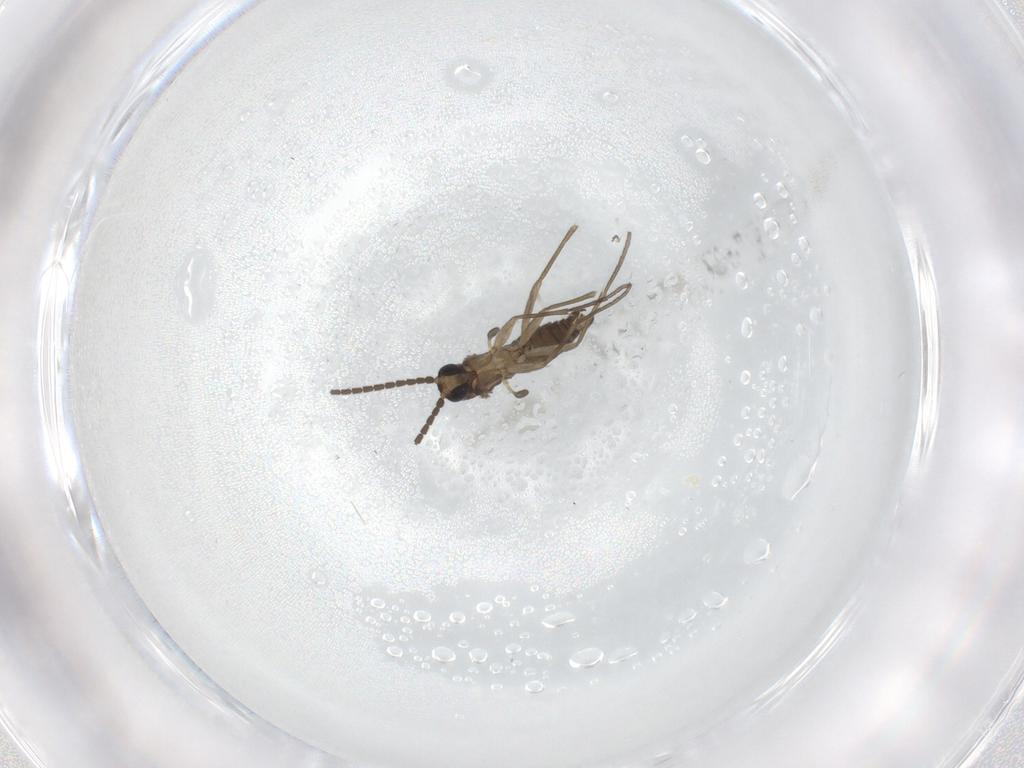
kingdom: Animalia
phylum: Arthropoda
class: Insecta
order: Diptera
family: Sciaridae
